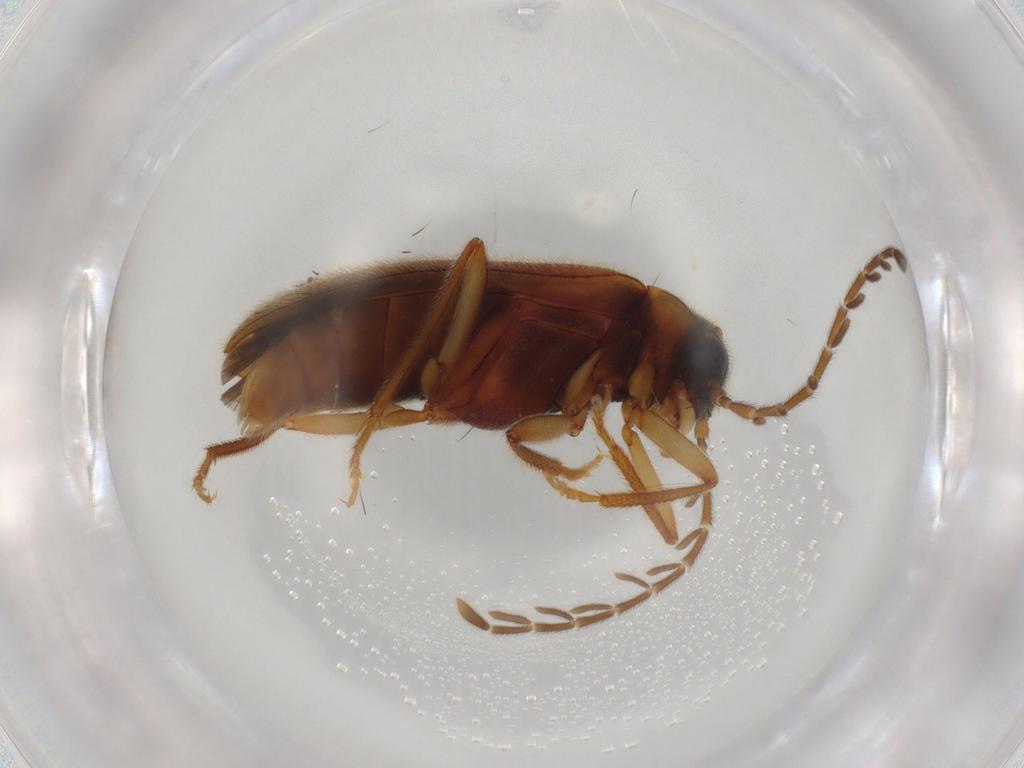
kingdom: Animalia
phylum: Arthropoda
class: Insecta
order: Coleoptera
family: Ptilodactylidae
